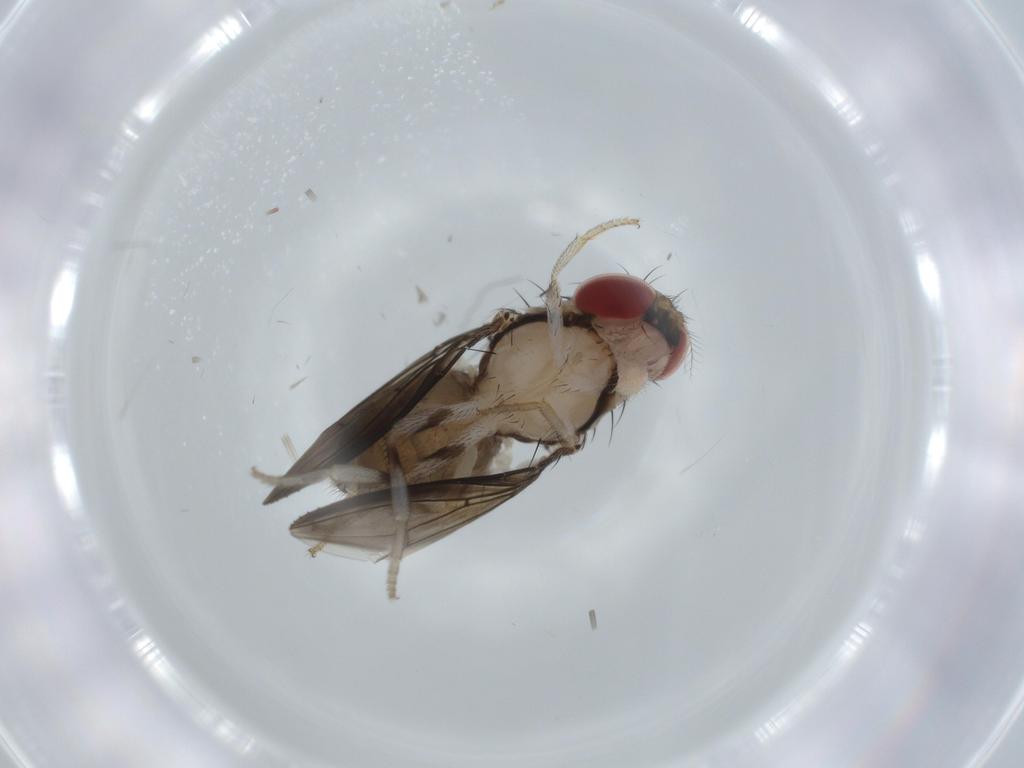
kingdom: Animalia
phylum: Arthropoda
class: Insecta
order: Diptera
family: Drosophilidae
